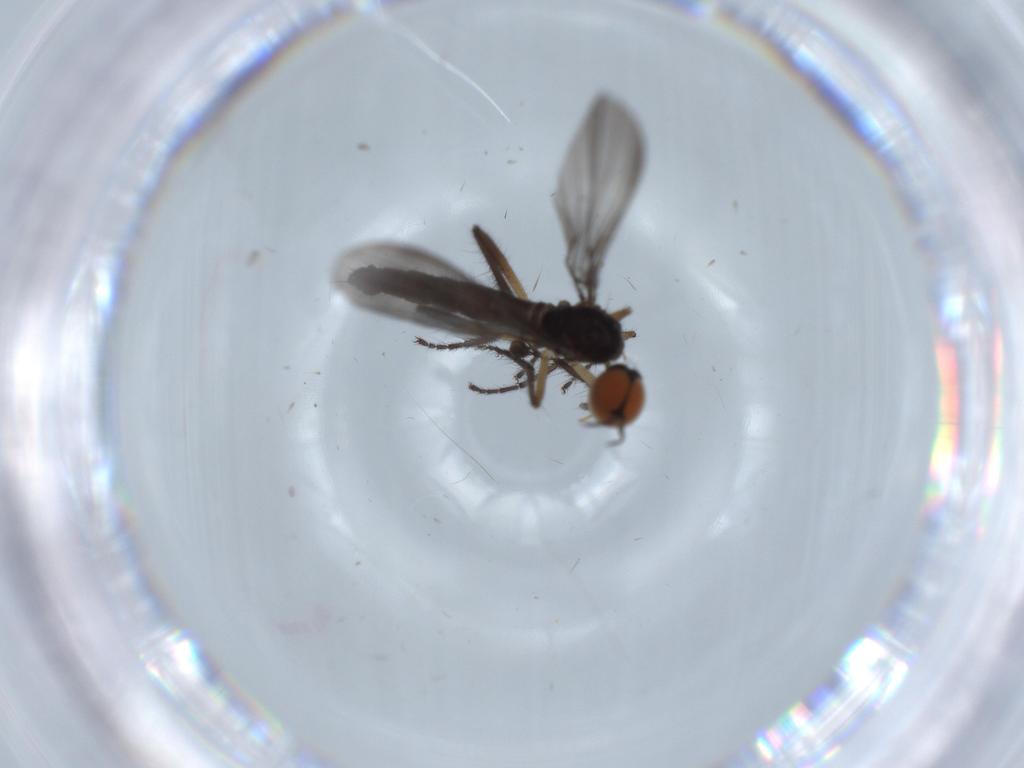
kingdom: Animalia
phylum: Arthropoda
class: Insecta
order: Diptera
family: Empididae
